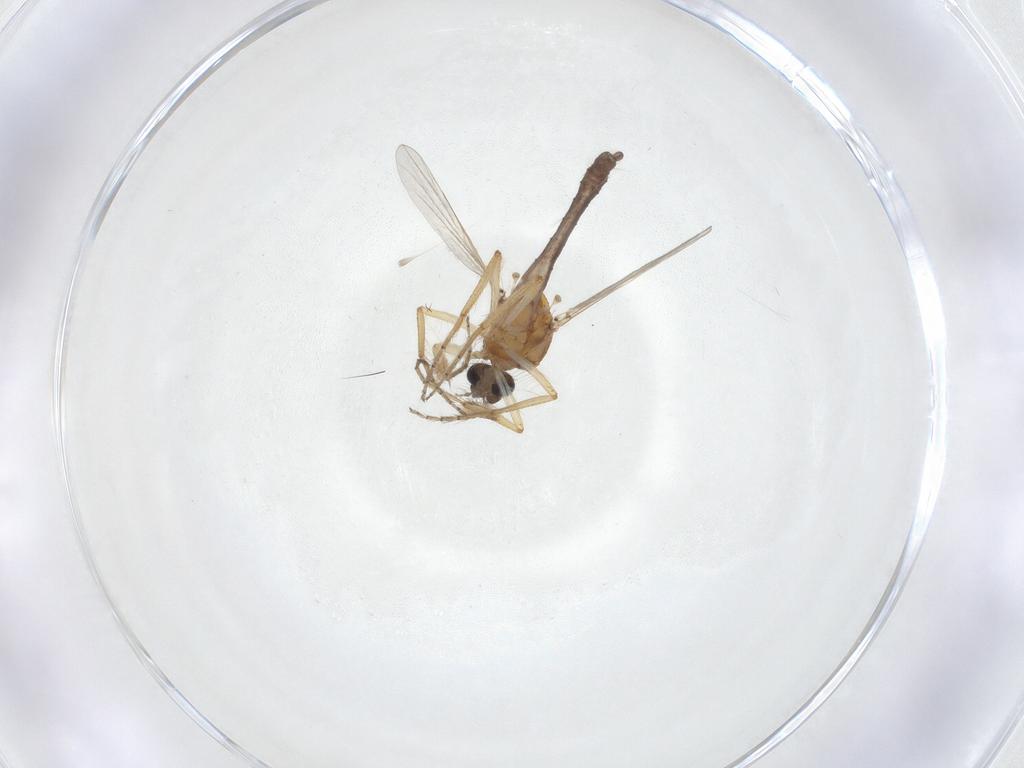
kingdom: Animalia
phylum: Arthropoda
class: Insecta
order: Diptera
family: Ceratopogonidae
